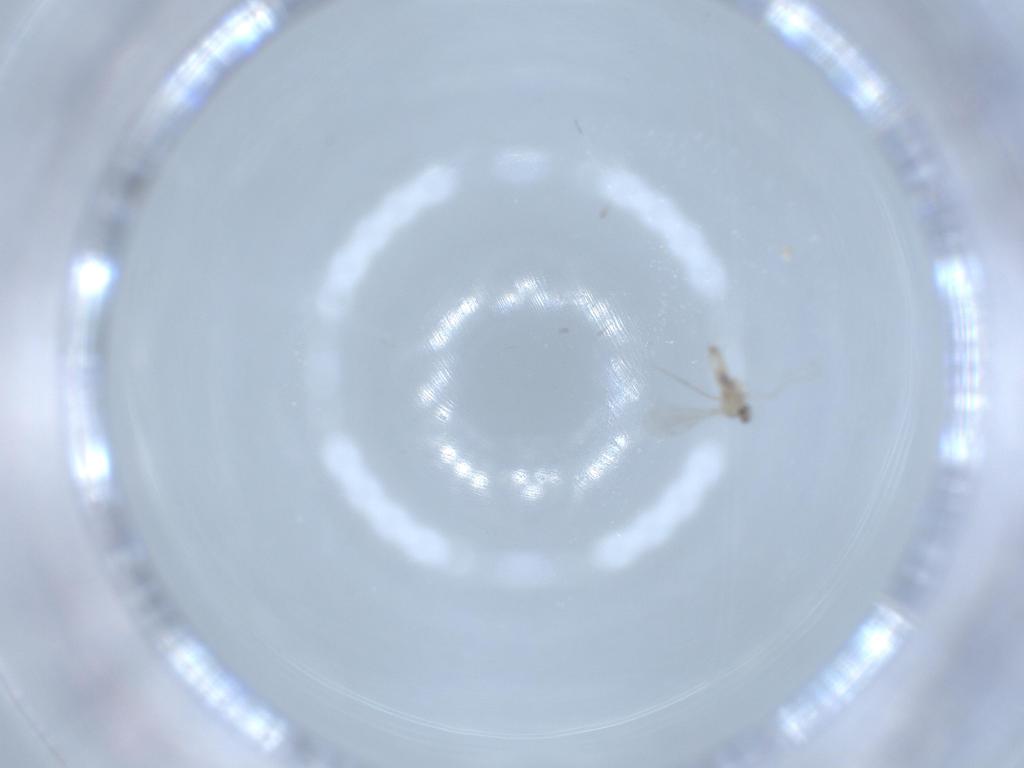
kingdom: Animalia
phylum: Arthropoda
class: Insecta
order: Diptera
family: Cecidomyiidae
